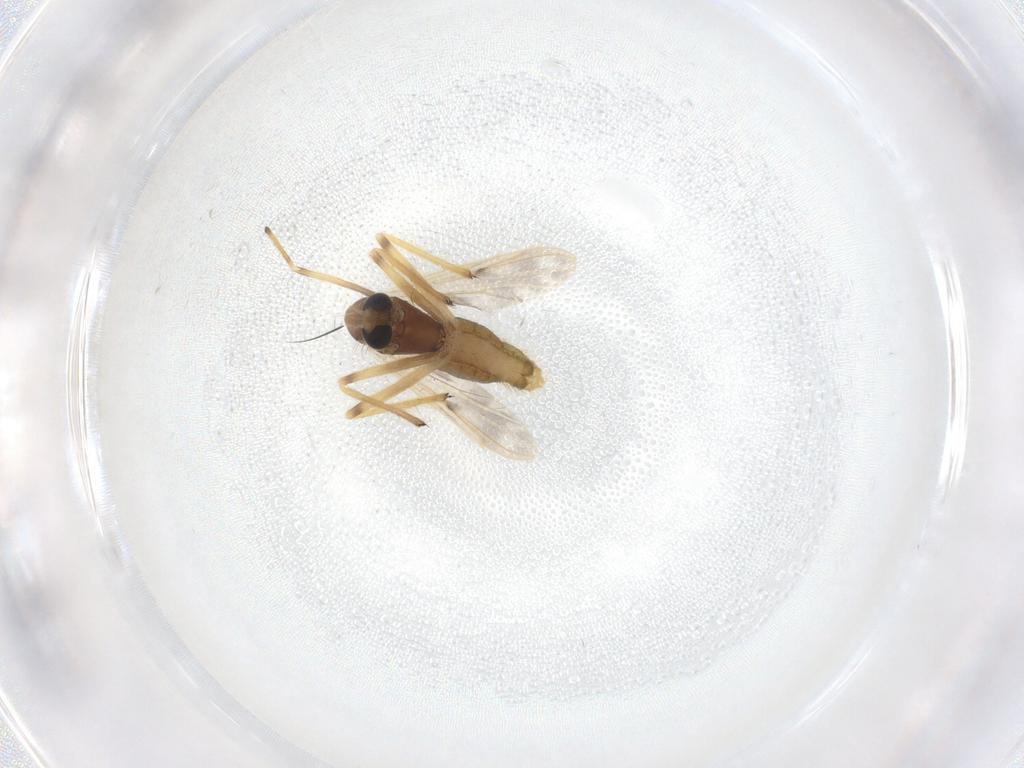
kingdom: Animalia
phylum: Arthropoda
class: Insecta
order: Diptera
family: Chironomidae
